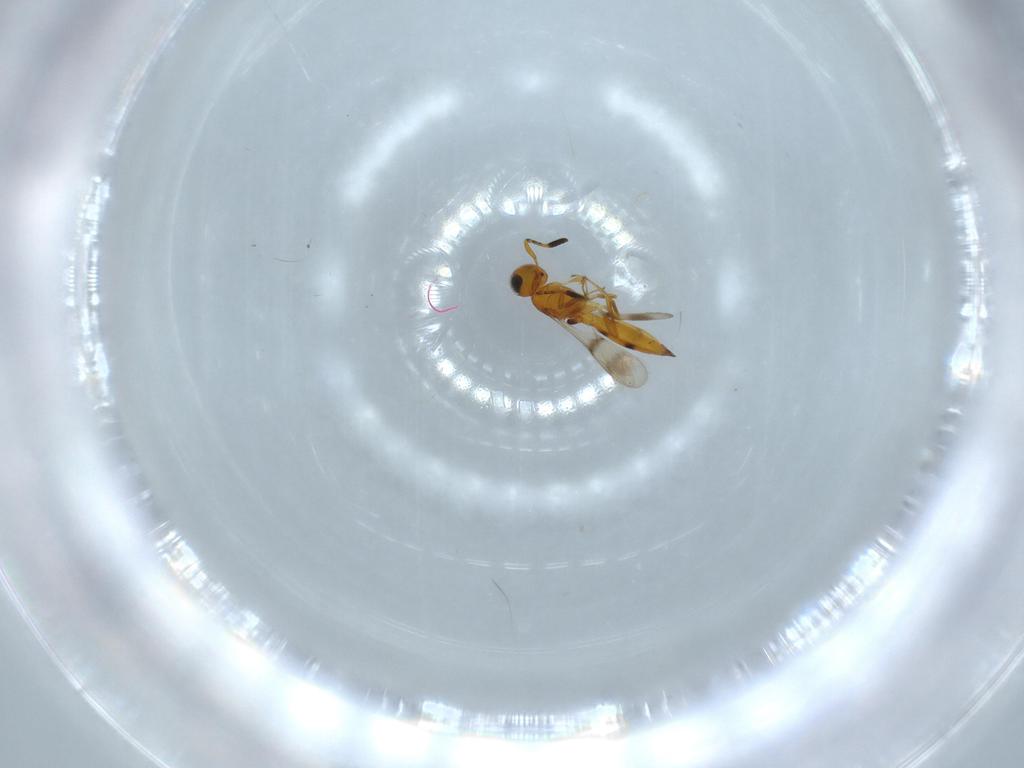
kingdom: Animalia
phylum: Arthropoda
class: Insecta
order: Hymenoptera
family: Scelionidae
